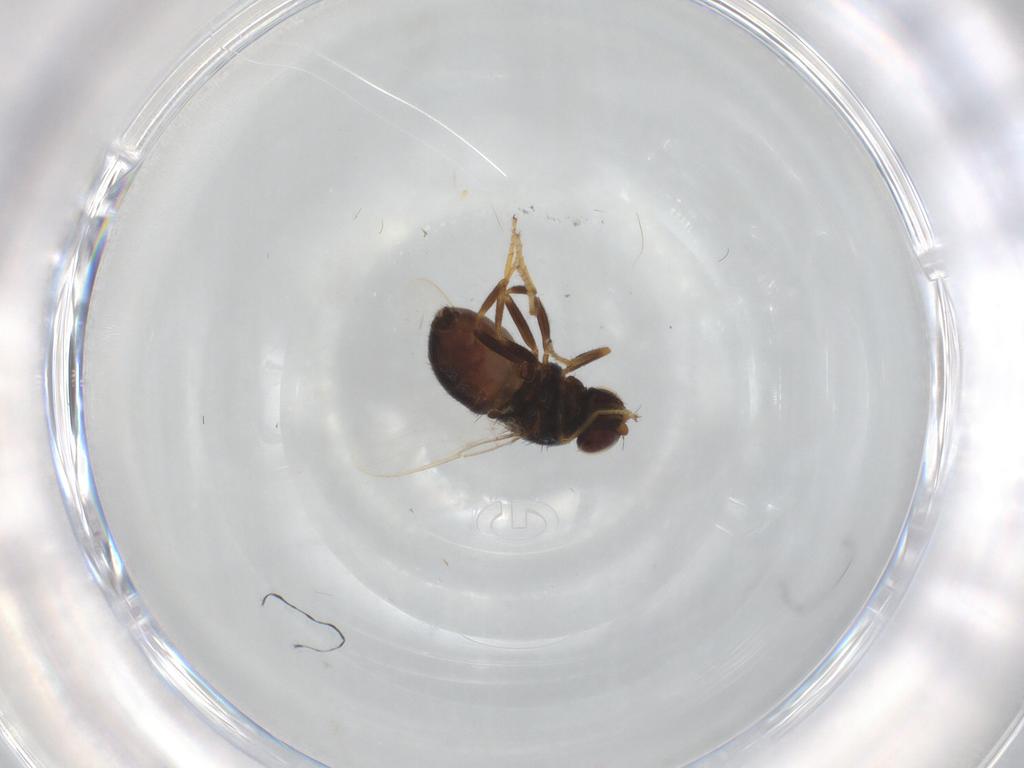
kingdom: Animalia
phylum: Arthropoda
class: Insecta
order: Diptera
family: Chloropidae
